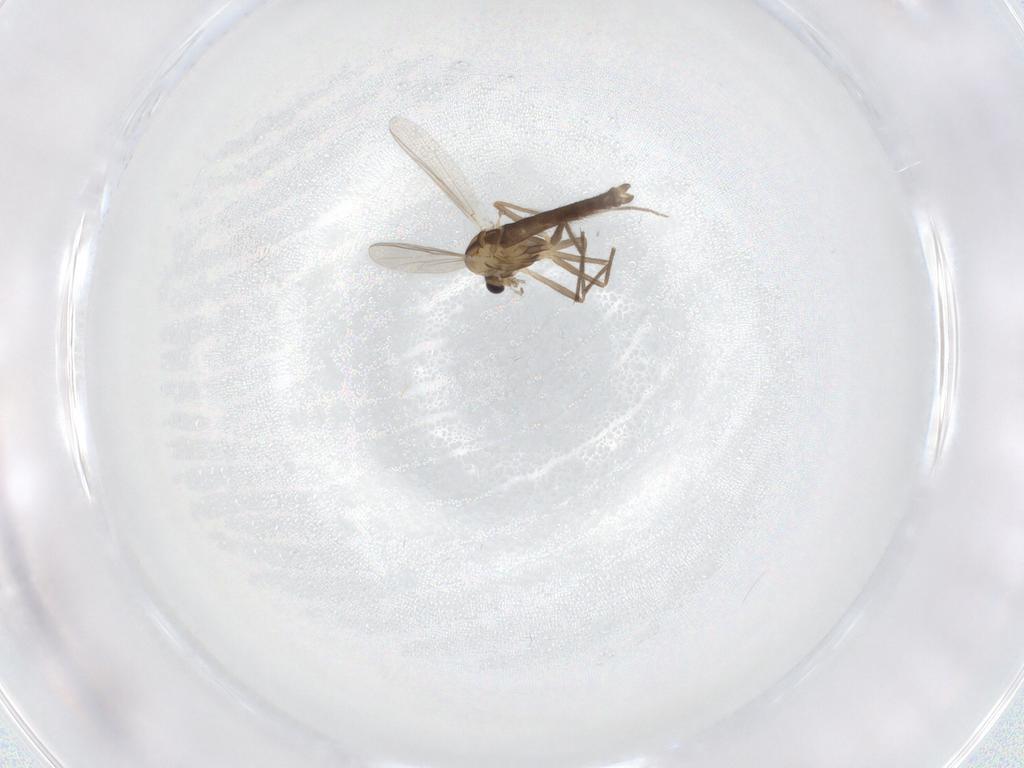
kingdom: Animalia
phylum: Arthropoda
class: Insecta
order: Diptera
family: Chironomidae
